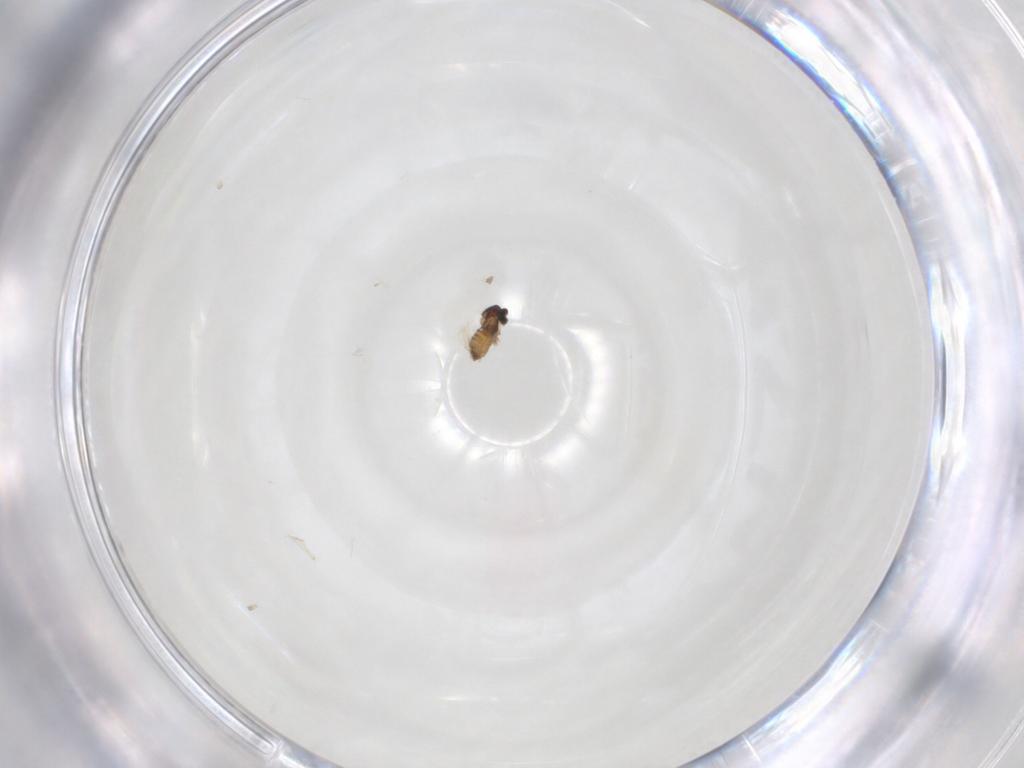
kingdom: Animalia
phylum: Arthropoda
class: Insecta
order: Diptera
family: Cecidomyiidae
